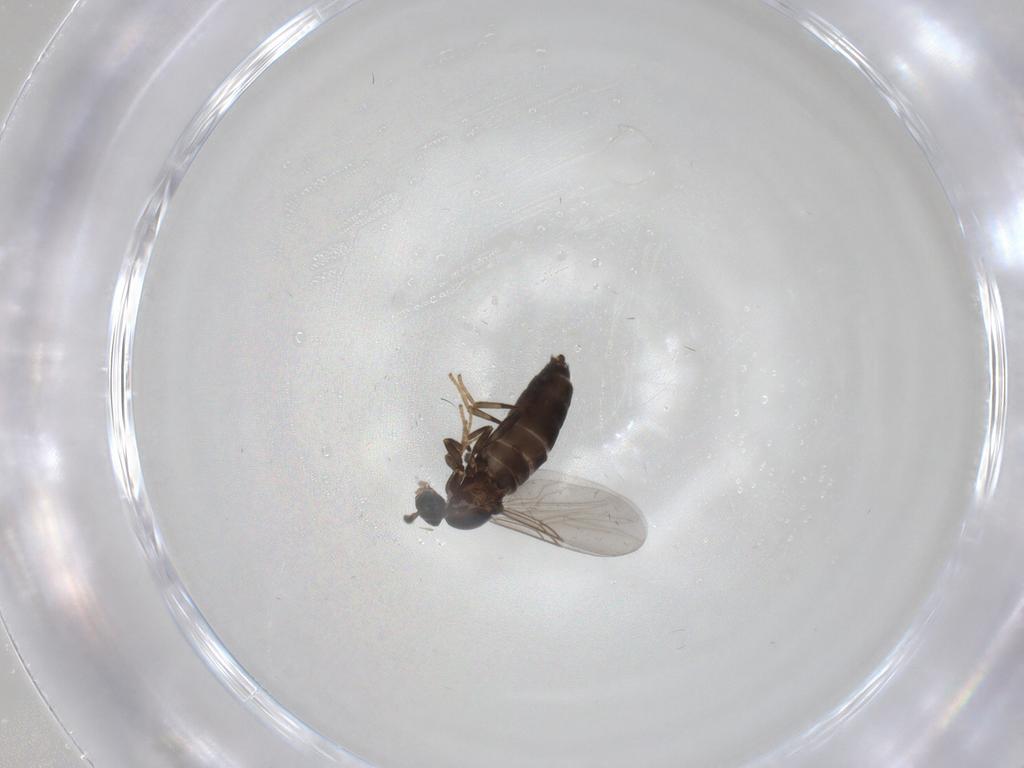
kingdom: Animalia
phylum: Arthropoda
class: Insecta
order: Diptera
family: Scatopsidae
